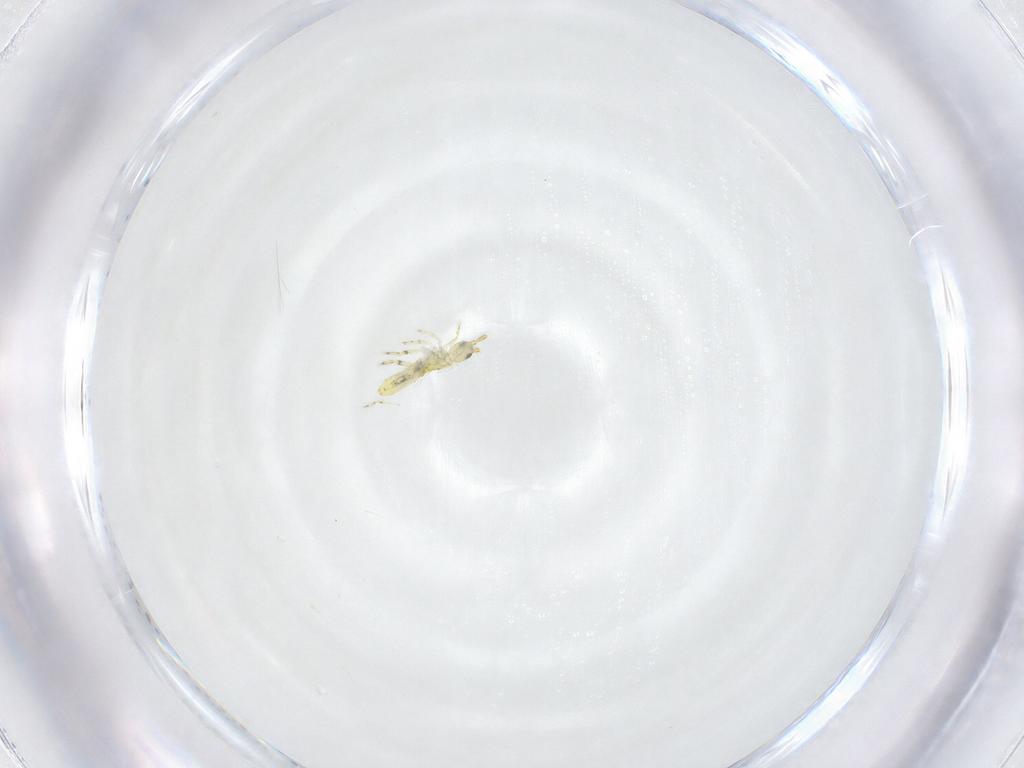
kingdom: Animalia
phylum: Arthropoda
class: Collembola
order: Entomobryomorpha
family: Entomobryidae
